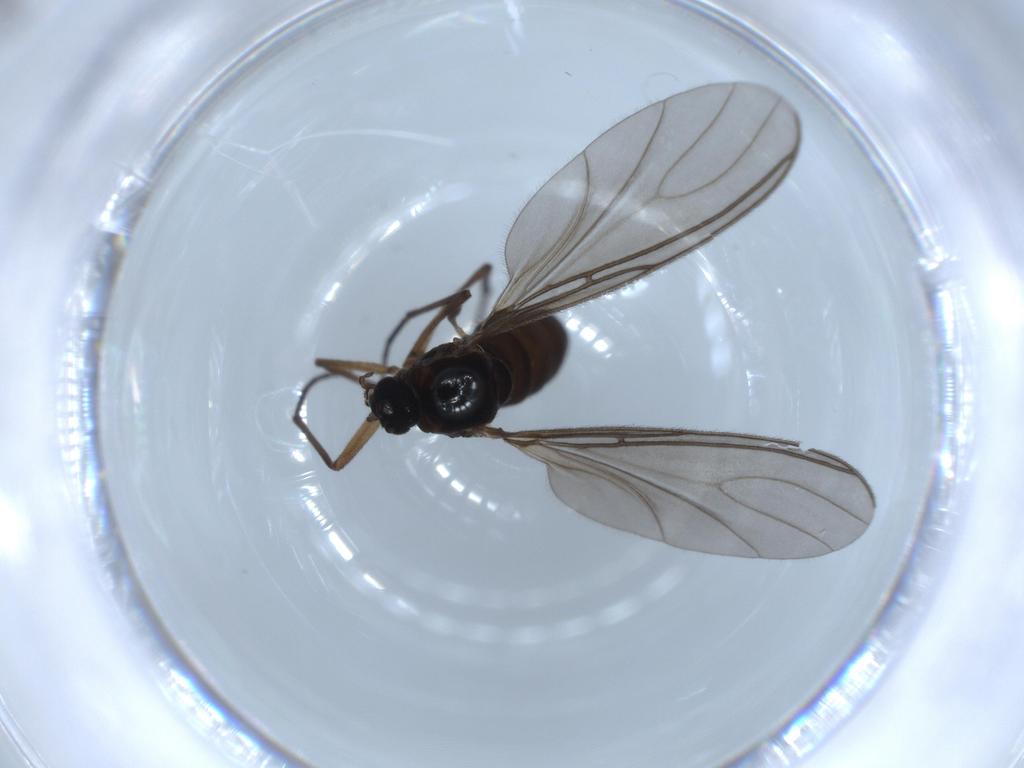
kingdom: Animalia
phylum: Arthropoda
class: Insecta
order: Diptera
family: Sciaridae
